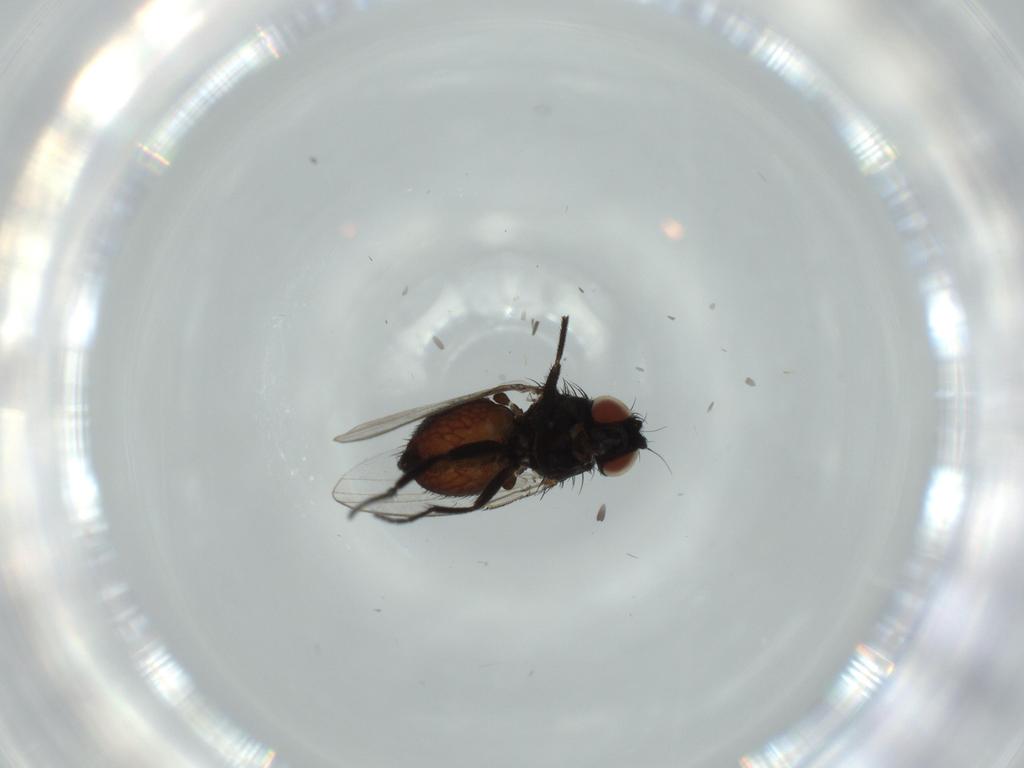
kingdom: Animalia
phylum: Arthropoda
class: Insecta
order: Diptera
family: Milichiidae
